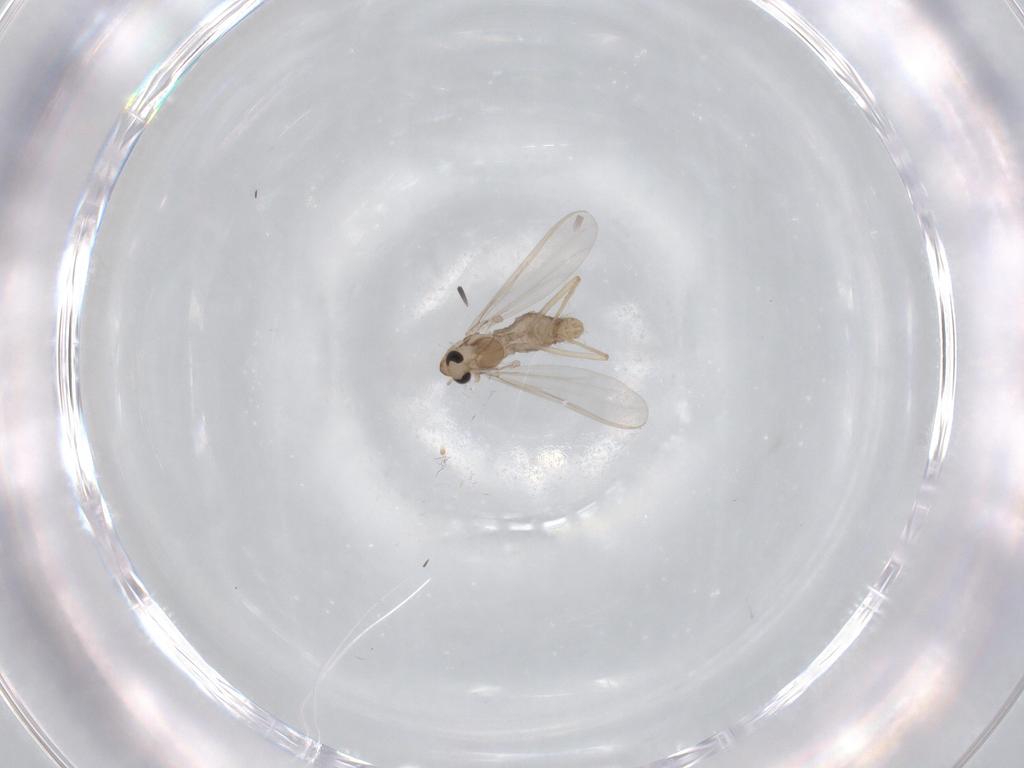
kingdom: Animalia
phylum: Arthropoda
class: Insecta
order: Diptera
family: Chironomidae
